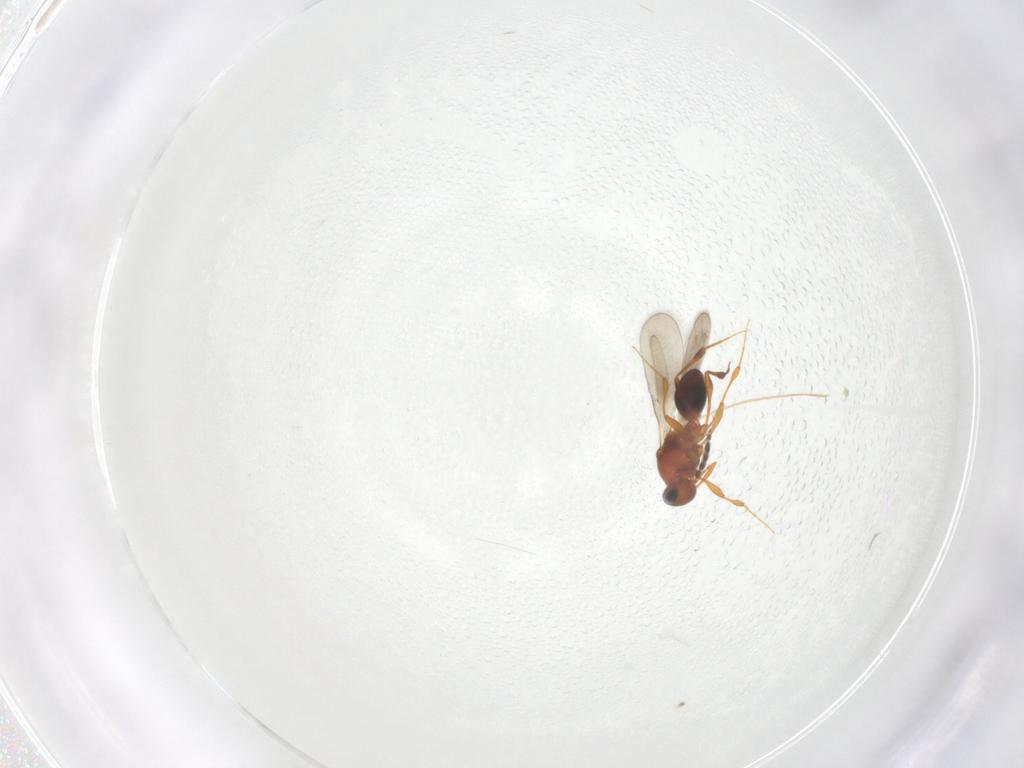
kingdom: Animalia
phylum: Arthropoda
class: Insecta
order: Hymenoptera
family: Platygastridae
